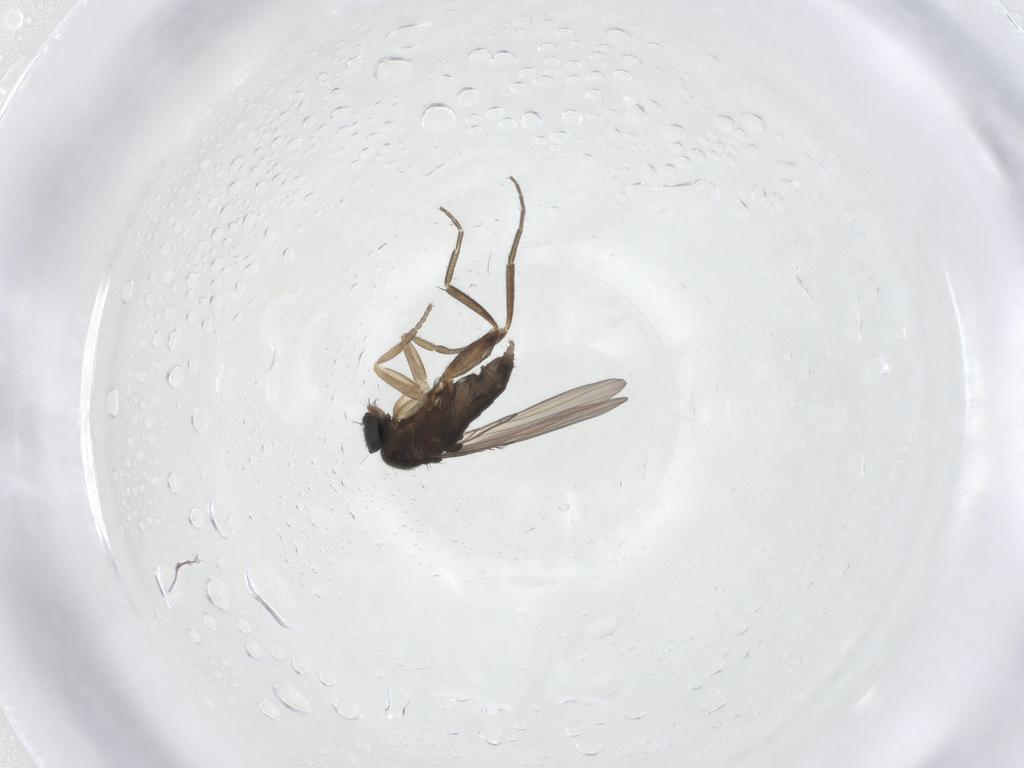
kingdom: Animalia
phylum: Arthropoda
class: Insecta
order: Diptera
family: Phoridae
